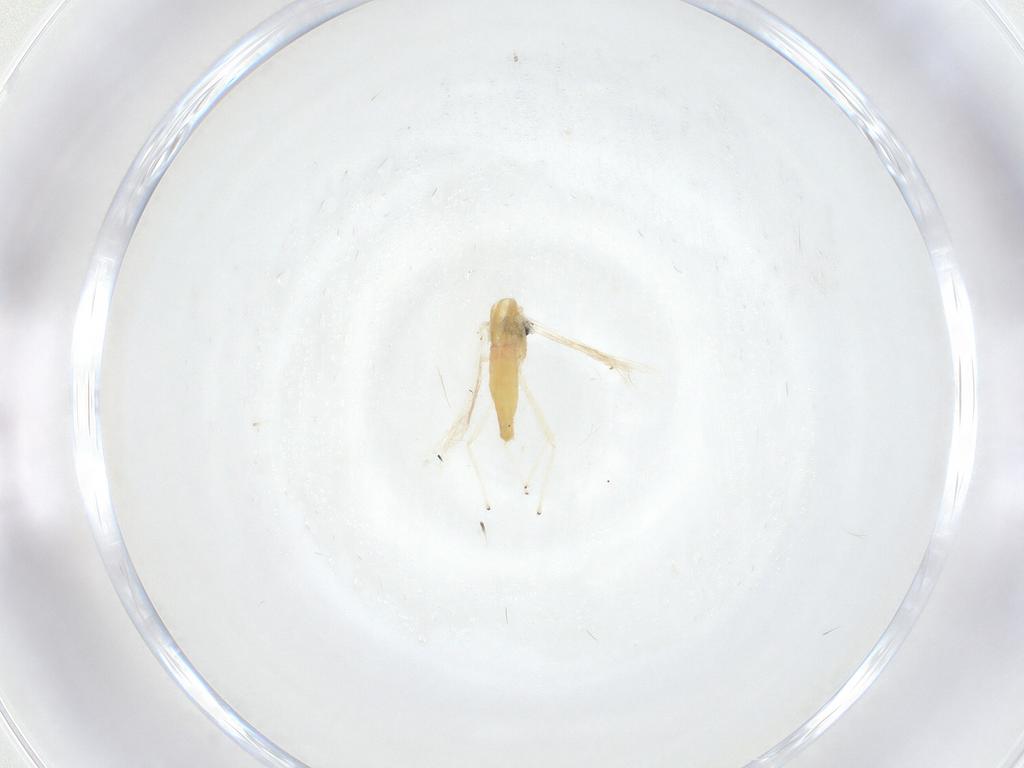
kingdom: Animalia
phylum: Arthropoda
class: Insecta
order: Diptera
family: Chironomidae
